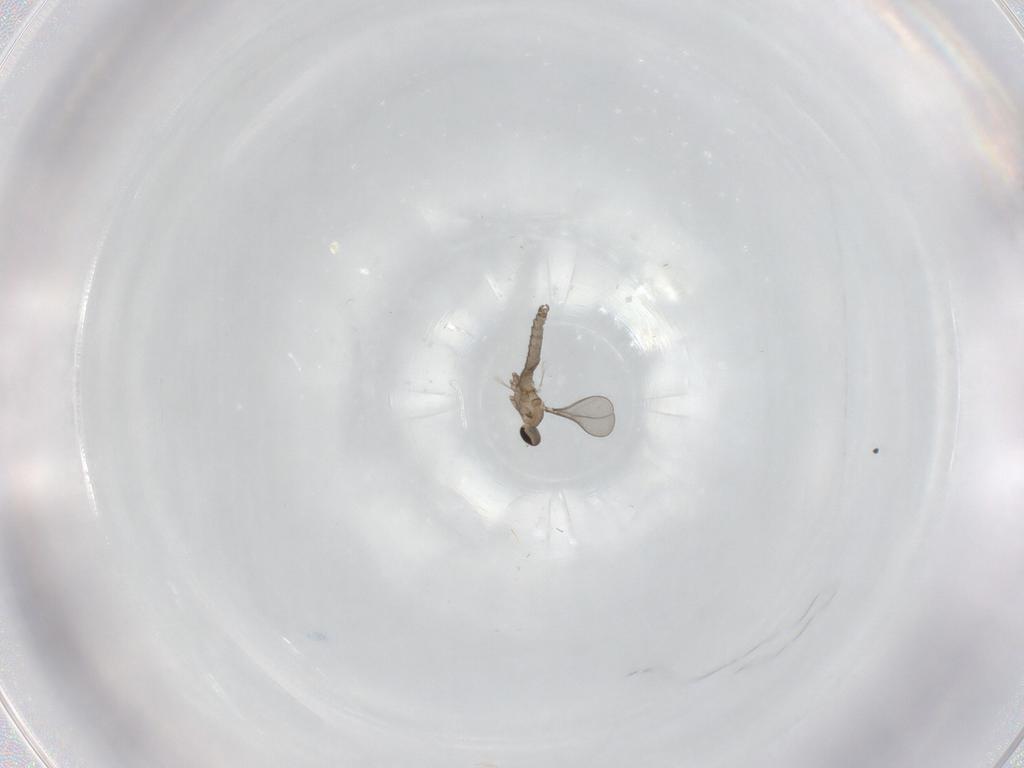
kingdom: Animalia
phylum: Arthropoda
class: Insecta
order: Diptera
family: Cecidomyiidae
